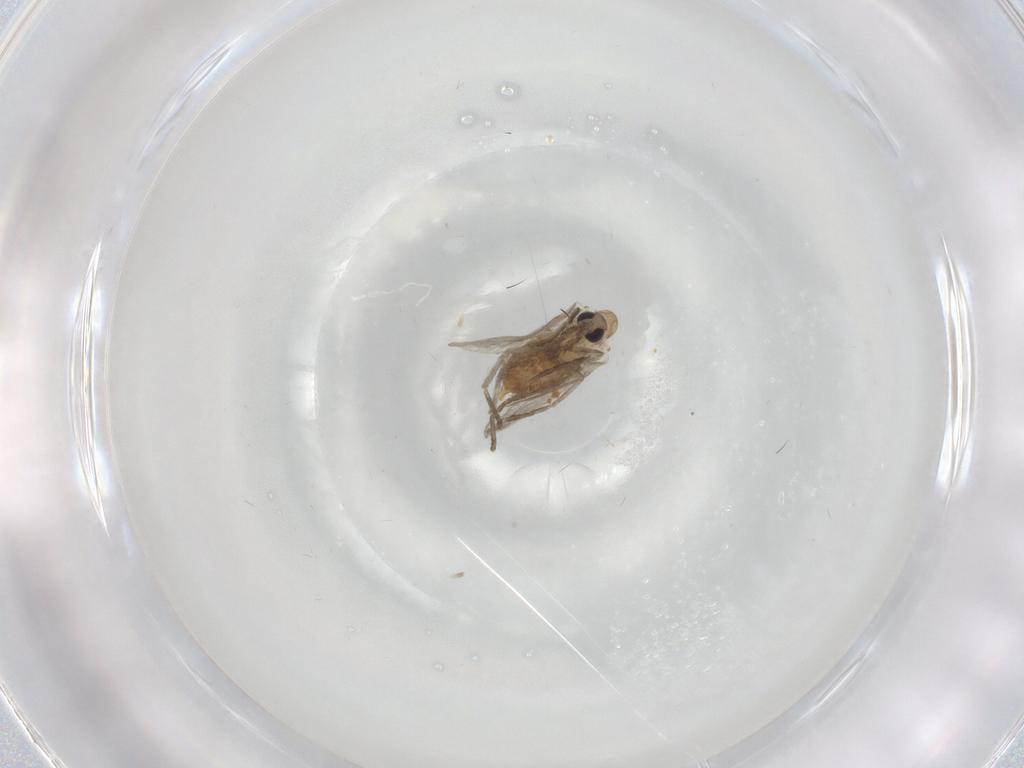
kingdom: Animalia
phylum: Arthropoda
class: Insecta
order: Diptera
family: Psychodidae
